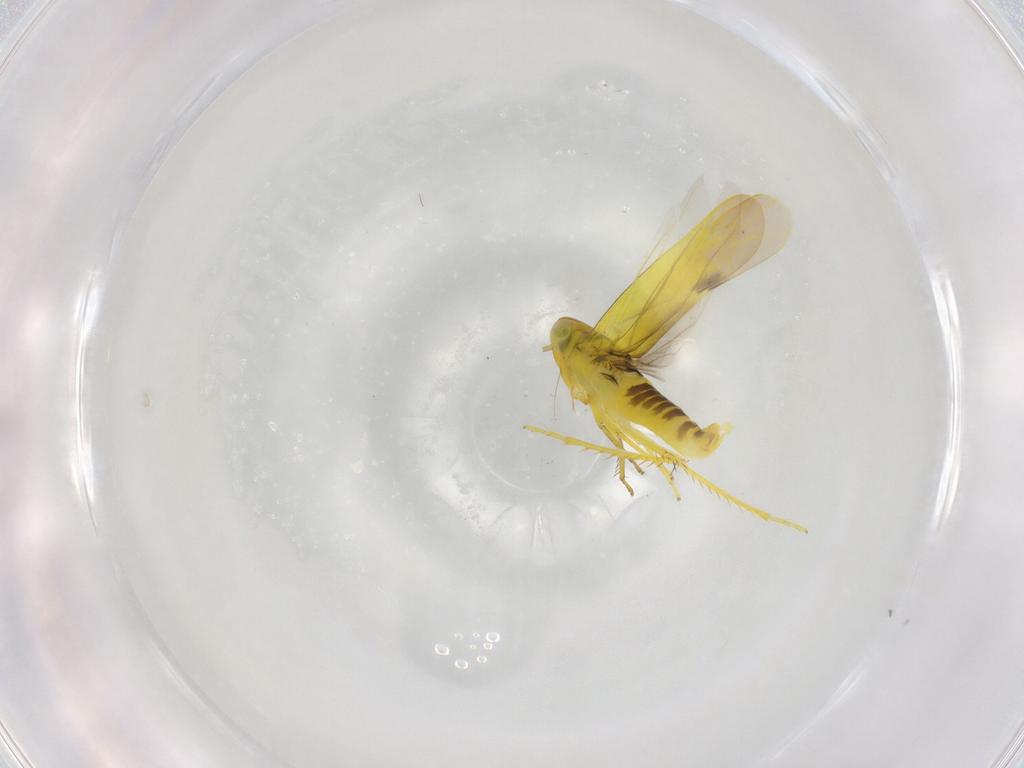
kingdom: Animalia
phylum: Arthropoda
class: Insecta
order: Hemiptera
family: Cicadellidae
